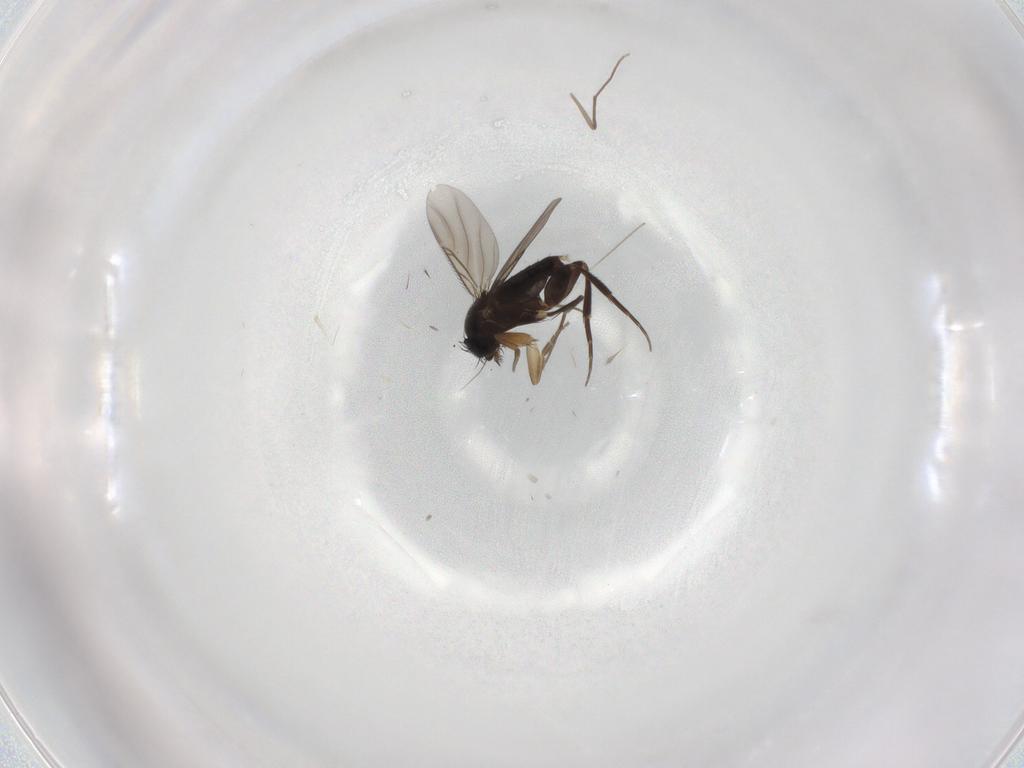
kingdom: Animalia
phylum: Arthropoda
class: Insecta
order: Diptera
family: Phoridae
